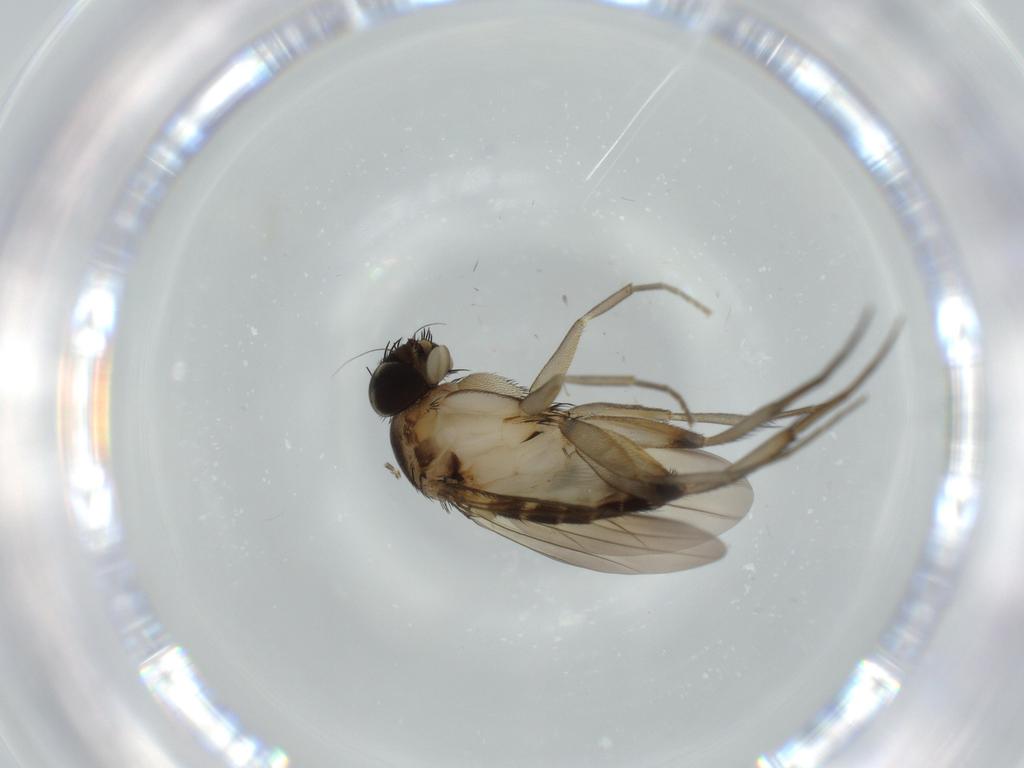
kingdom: Animalia
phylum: Arthropoda
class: Insecta
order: Diptera
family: Phoridae
